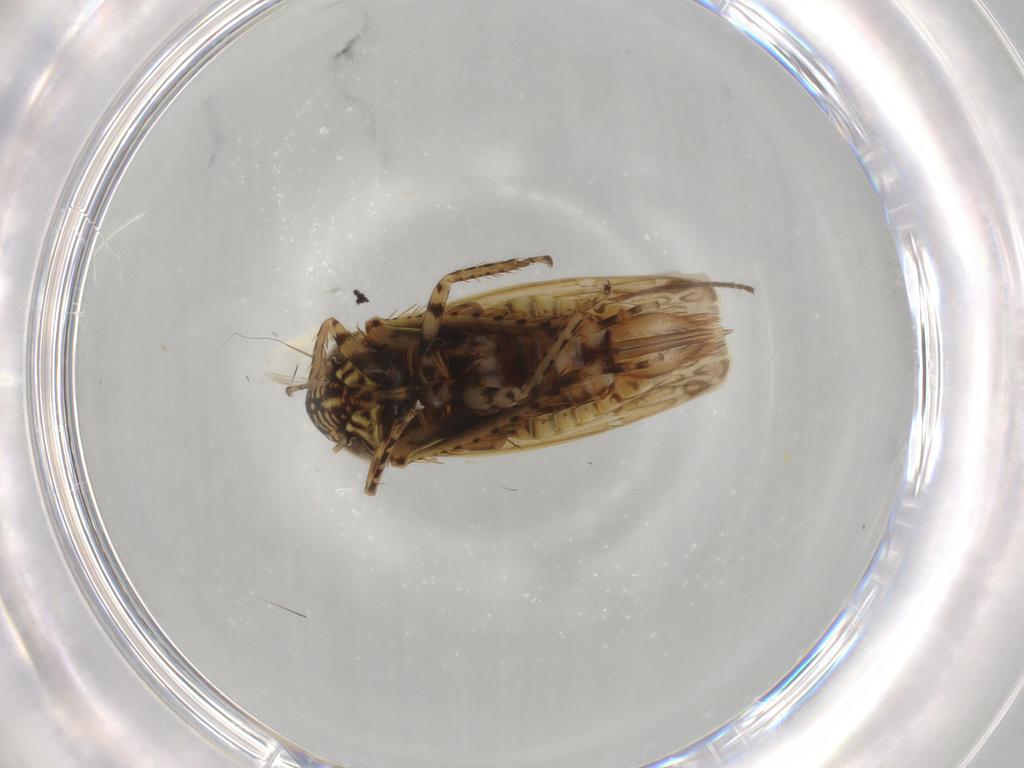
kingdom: Animalia
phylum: Arthropoda
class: Insecta
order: Hemiptera
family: Cicadellidae
